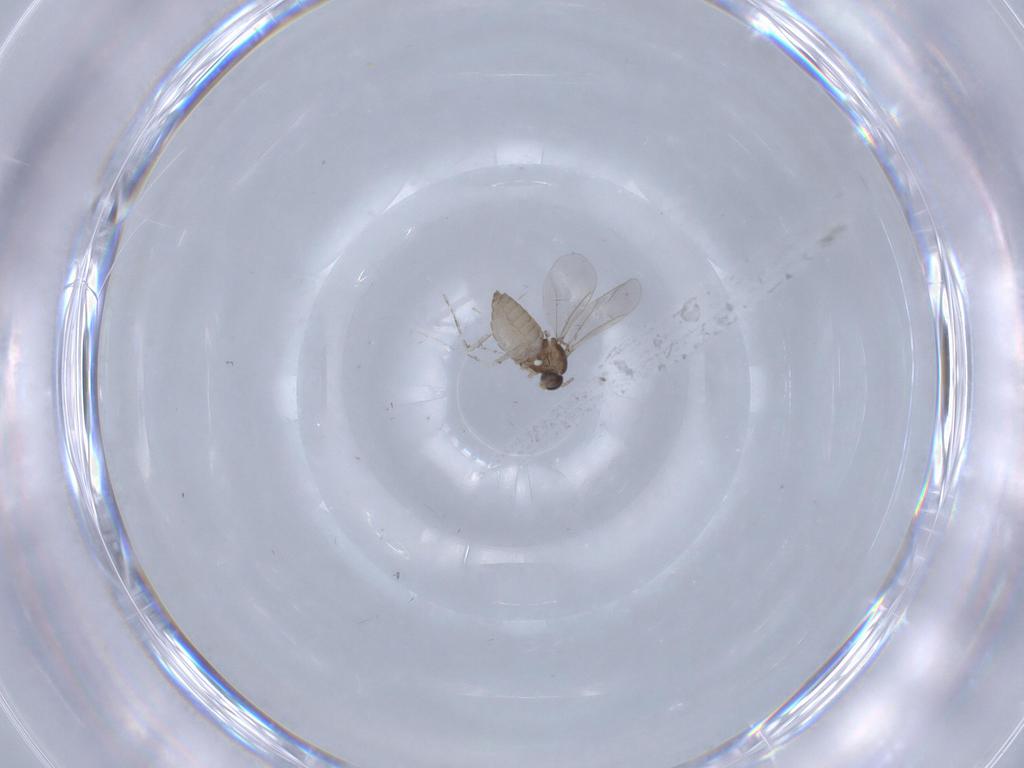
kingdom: Animalia
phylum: Arthropoda
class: Insecta
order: Diptera
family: Cecidomyiidae
